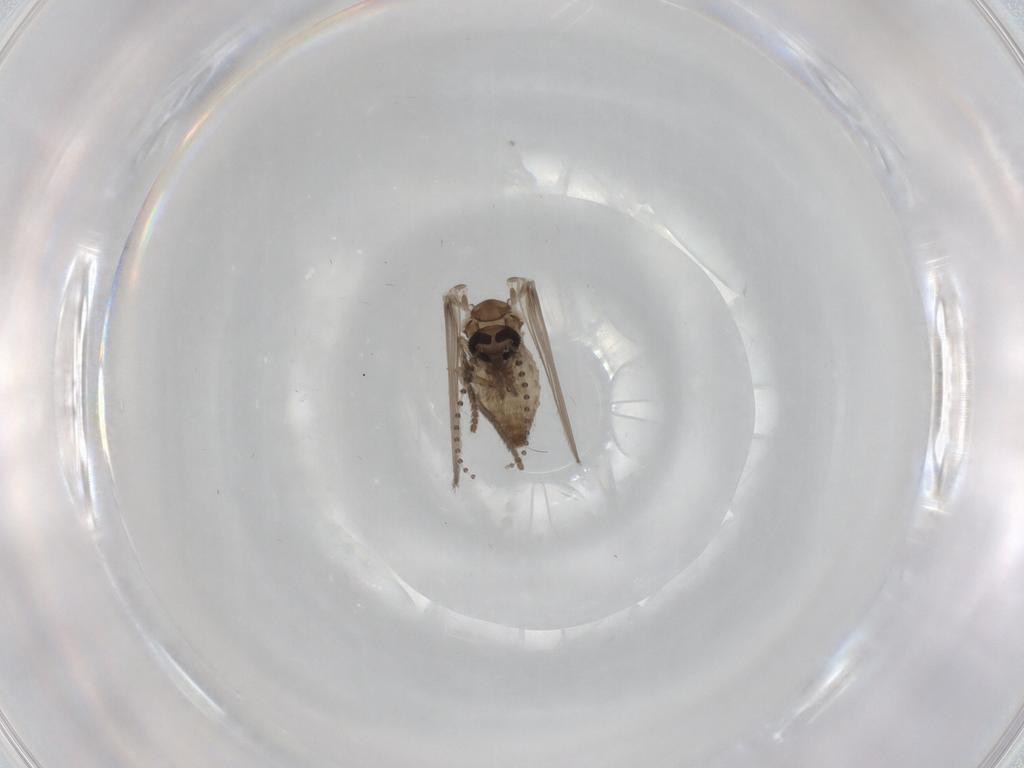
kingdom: Animalia
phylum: Arthropoda
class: Insecta
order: Diptera
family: Psychodidae
